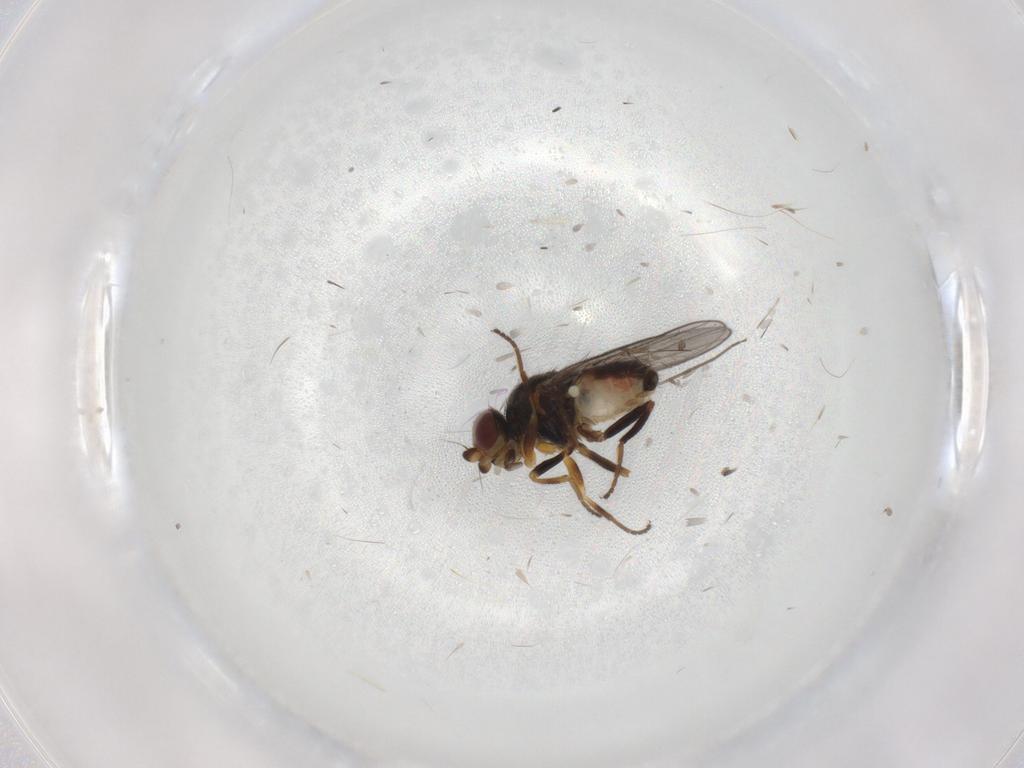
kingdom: Animalia
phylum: Arthropoda
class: Insecta
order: Diptera
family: Chloropidae
